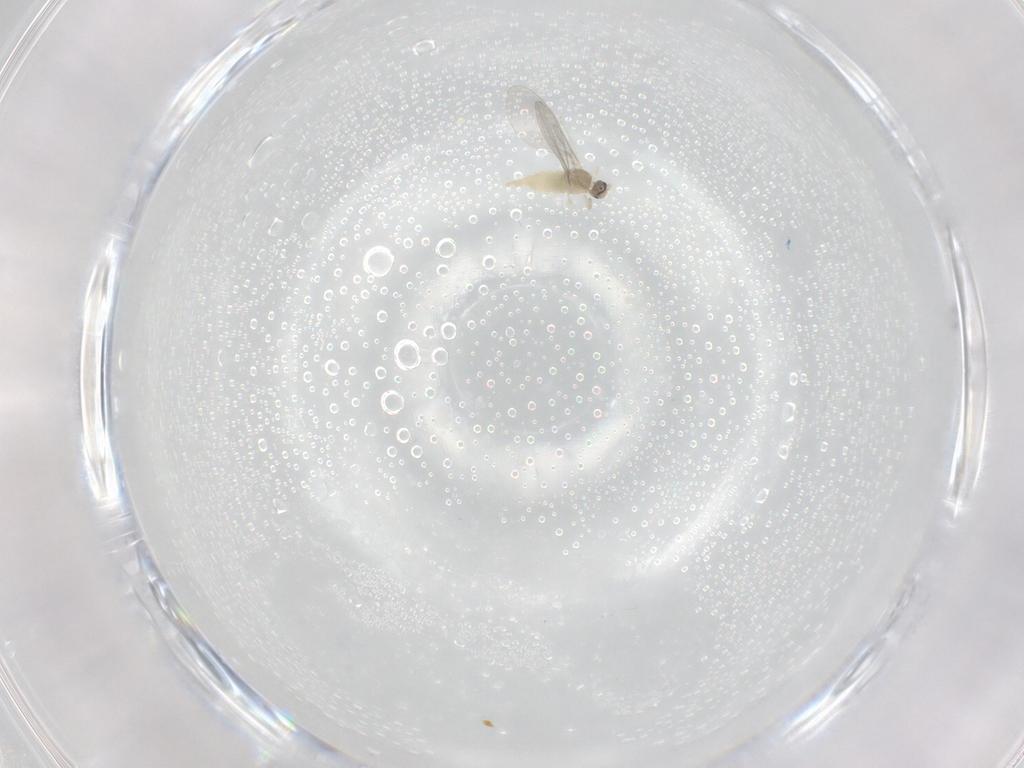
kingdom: Animalia
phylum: Arthropoda
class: Insecta
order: Diptera
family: Chironomidae
